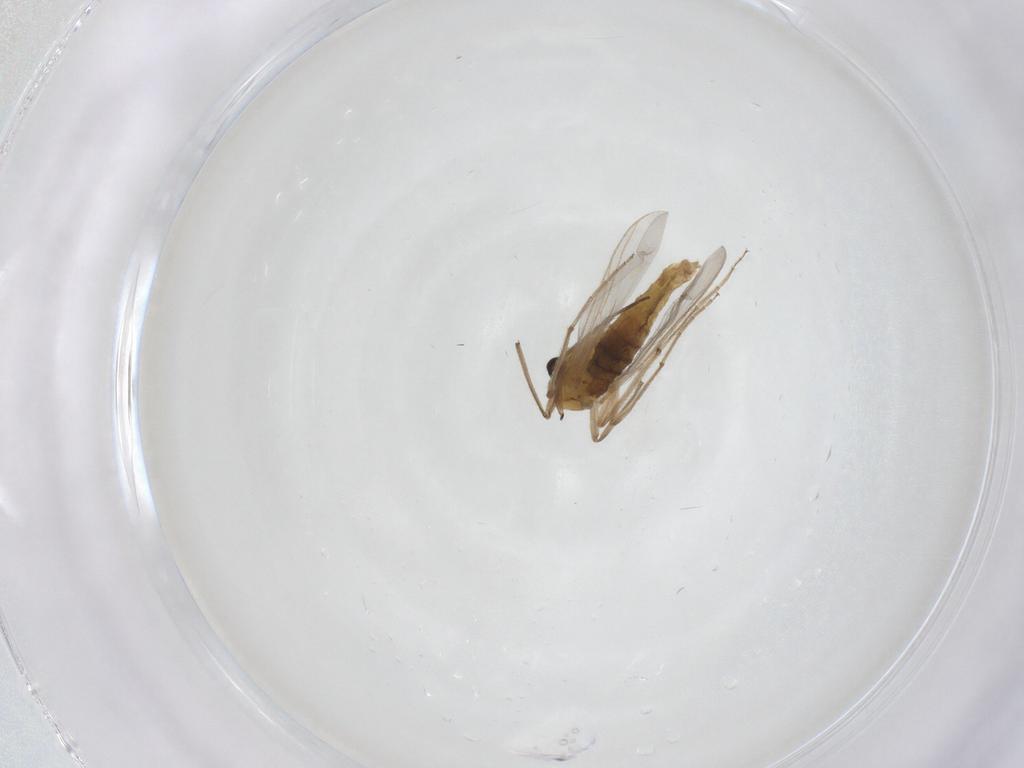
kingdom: Animalia
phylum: Arthropoda
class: Insecta
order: Diptera
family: Chironomidae
